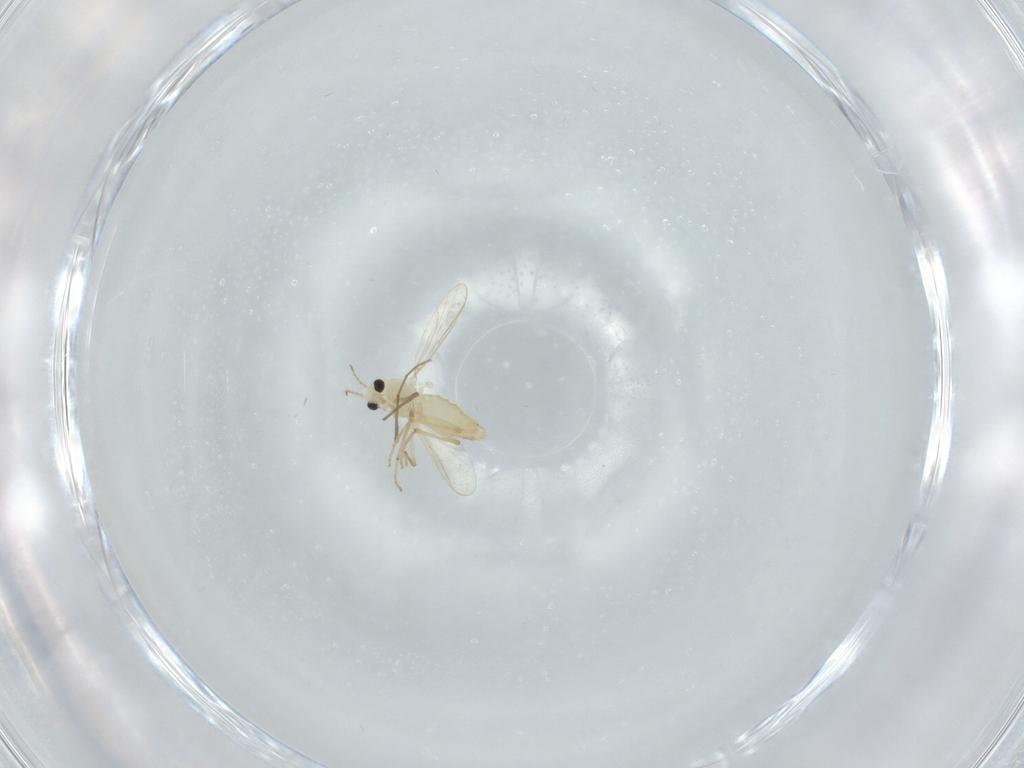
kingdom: Animalia
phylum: Arthropoda
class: Insecta
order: Diptera
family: Chironomidae
